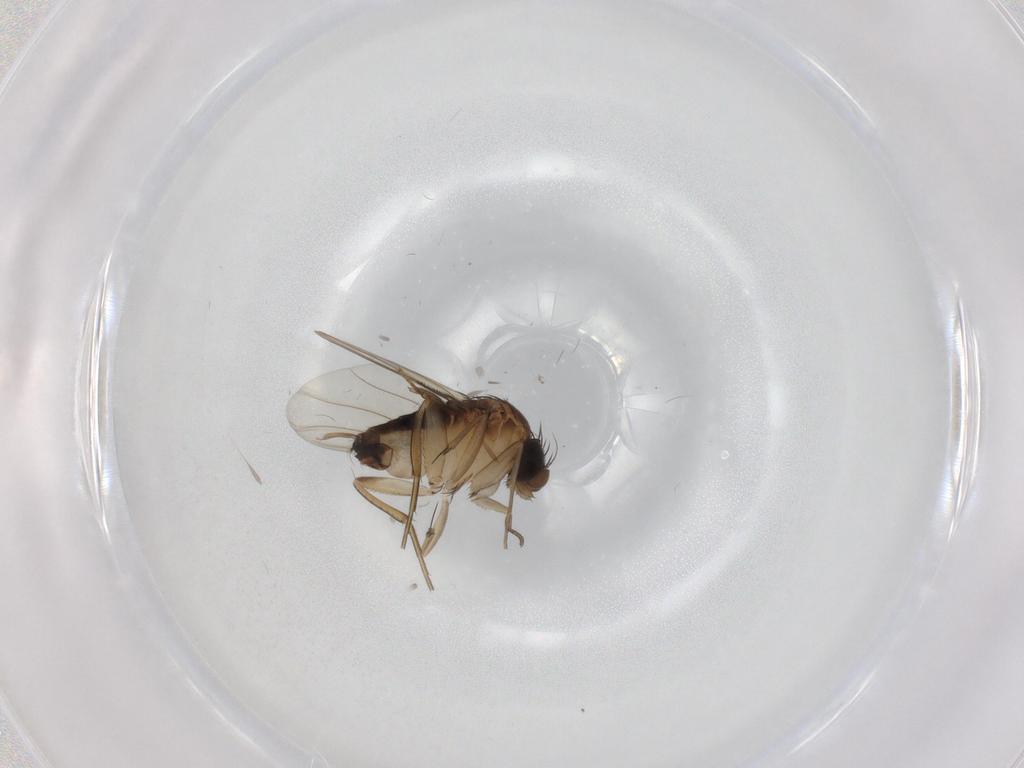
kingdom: Animalia
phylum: Arthropoda
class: Insecta
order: Diptera
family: Phoridae
